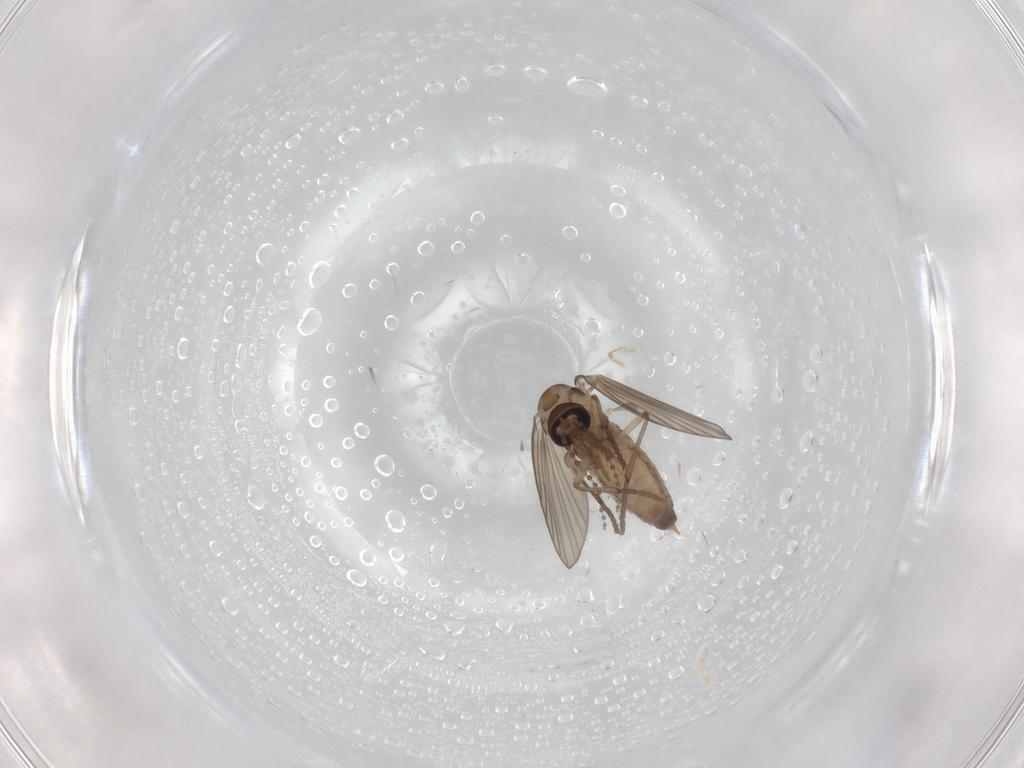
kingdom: Animalia
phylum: Arthropoda
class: Insecta
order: Diptera
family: Psychodidae
